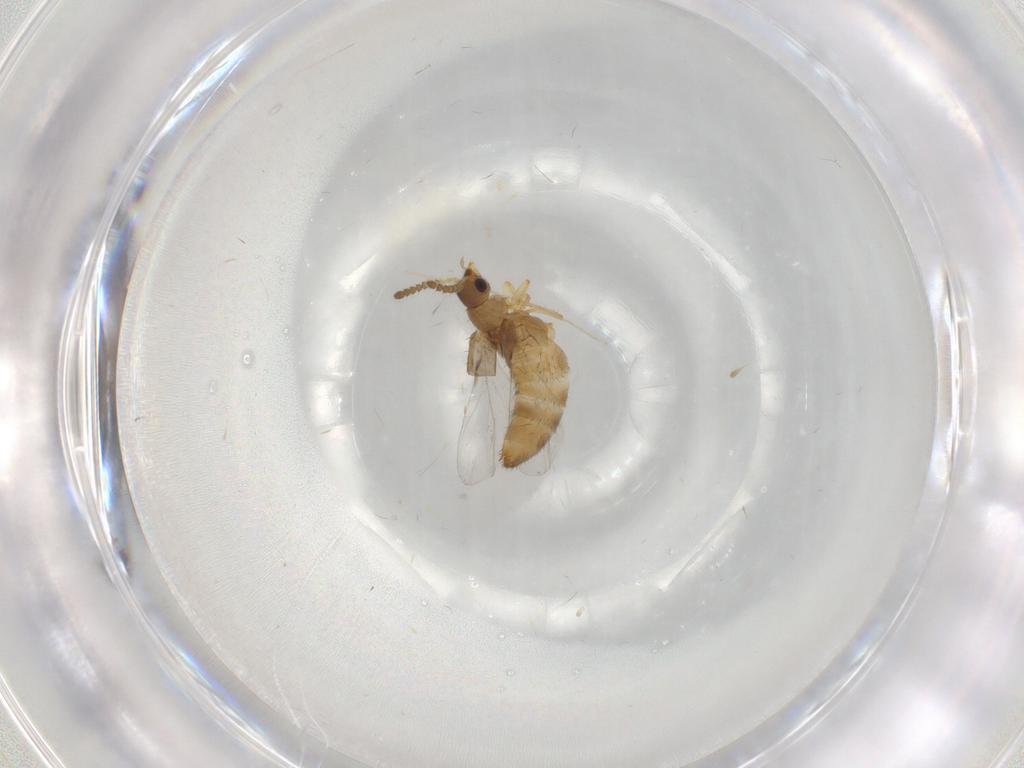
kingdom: Animalia
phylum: Arthropoda
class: Insecta
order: Coleoptera
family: Staphylinidae
